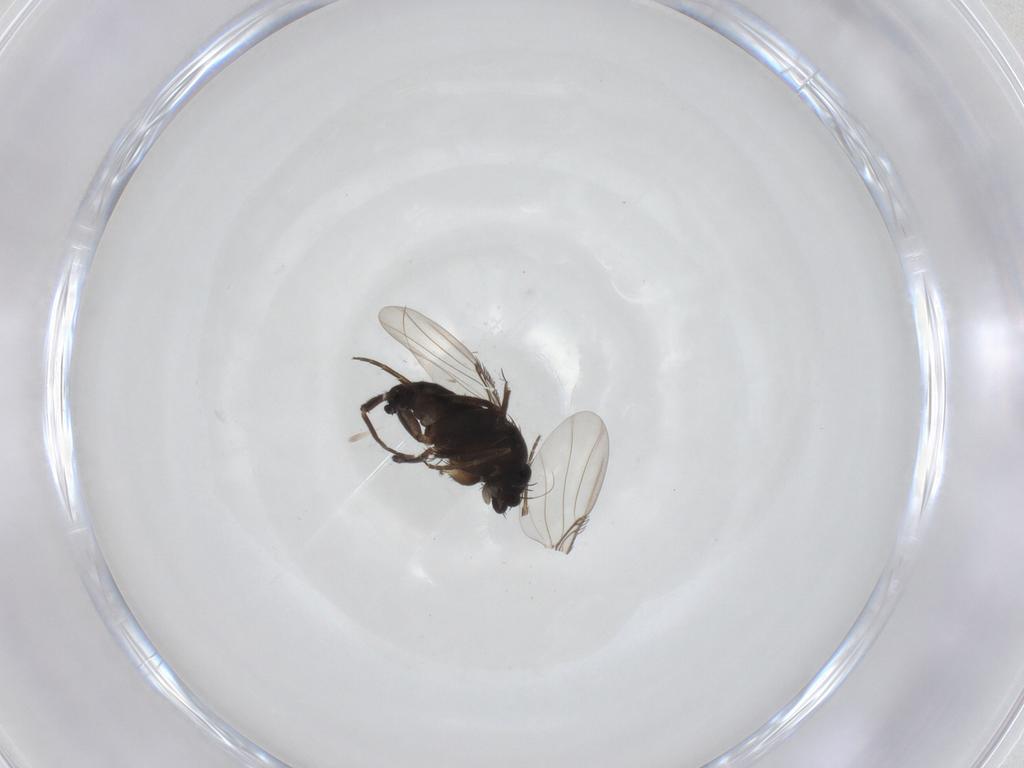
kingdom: Animalia
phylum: Arthropoda
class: Insecta
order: Diptera
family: Phoridae
